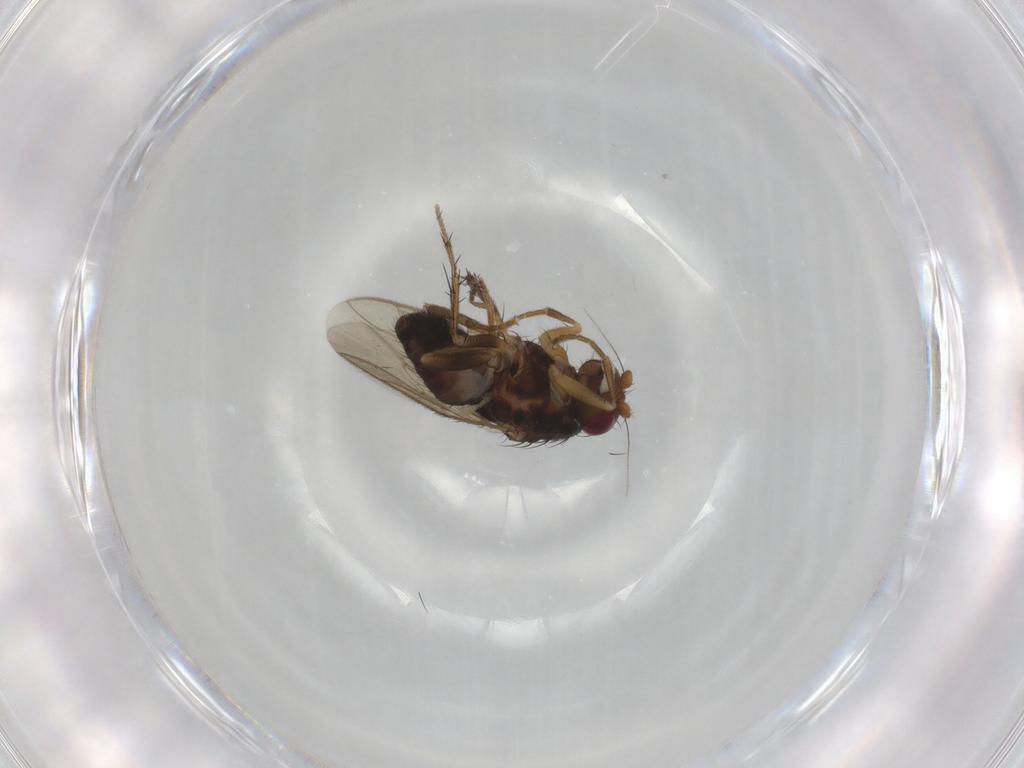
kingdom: Animalia
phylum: Arthropoda
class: Insecta
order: Diptera
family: Sphaeroceridae
